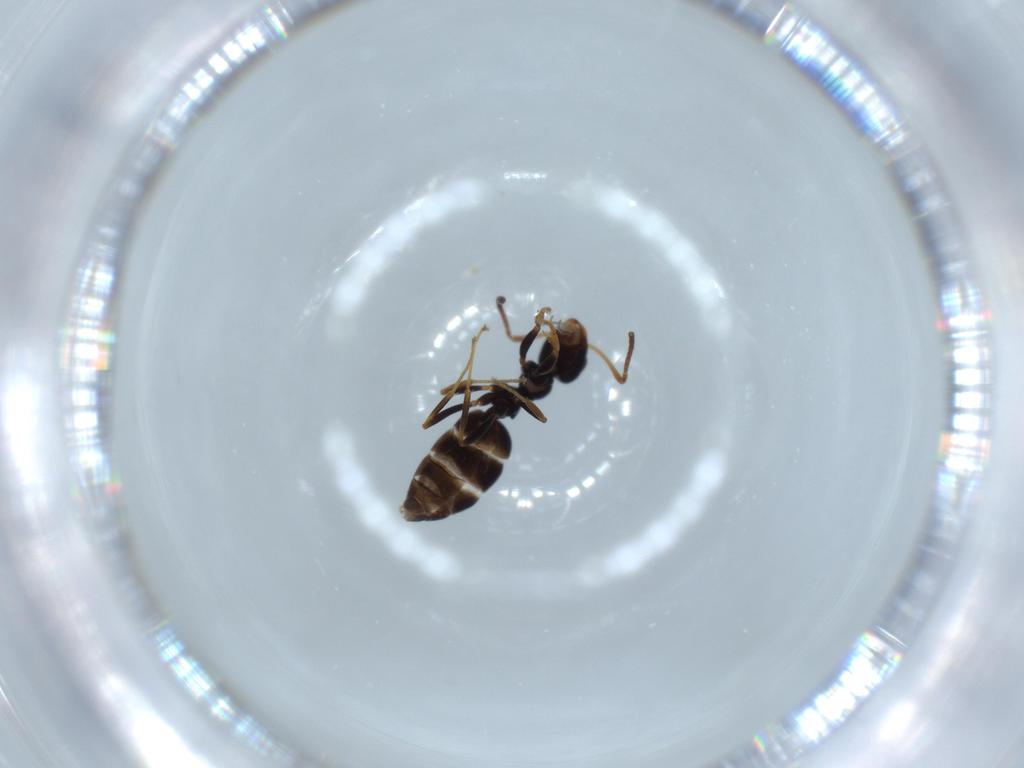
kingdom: Animalia
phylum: Arthropoda
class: Insecta
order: Hymenoptera
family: Formicidae
